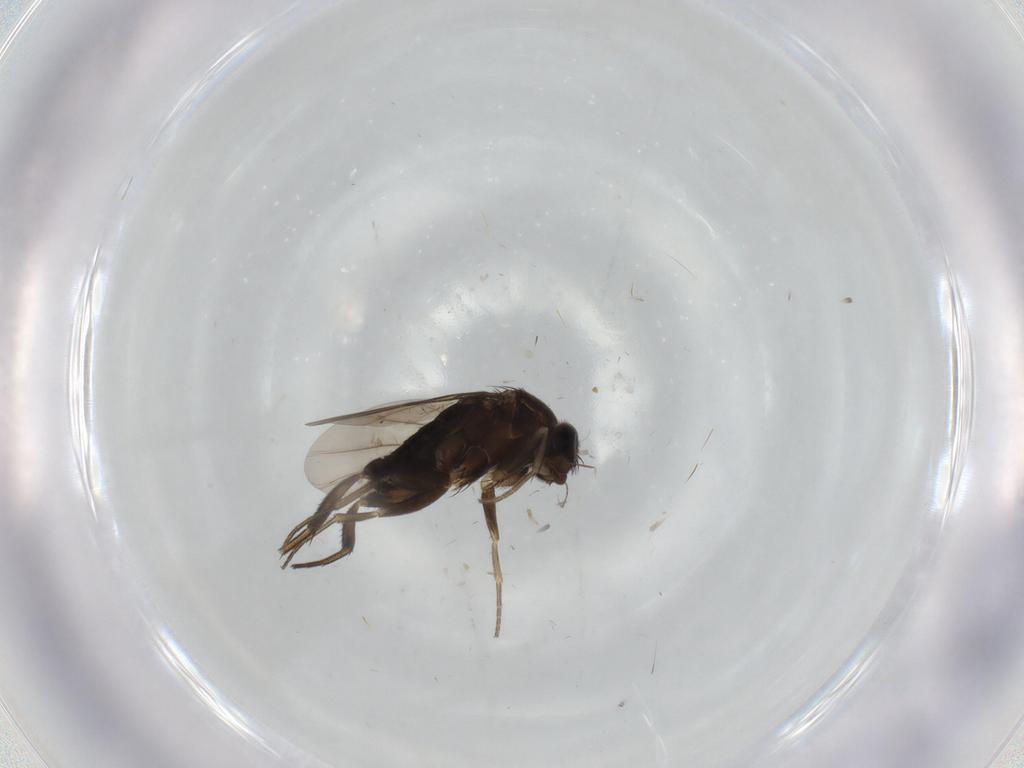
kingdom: Animalia
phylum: Arthropoda
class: Insecta
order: Diptera
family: Phoridae
